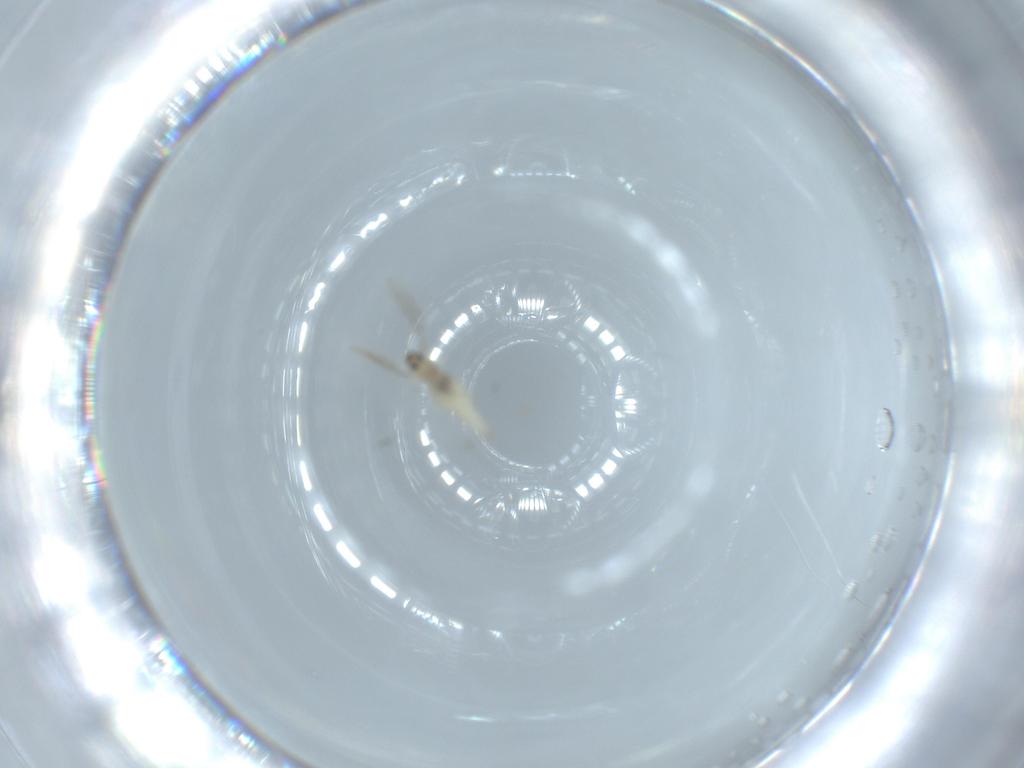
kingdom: Animalia
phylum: Arthropoda
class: Insecta
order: Diptera
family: Cecidomyiidae
